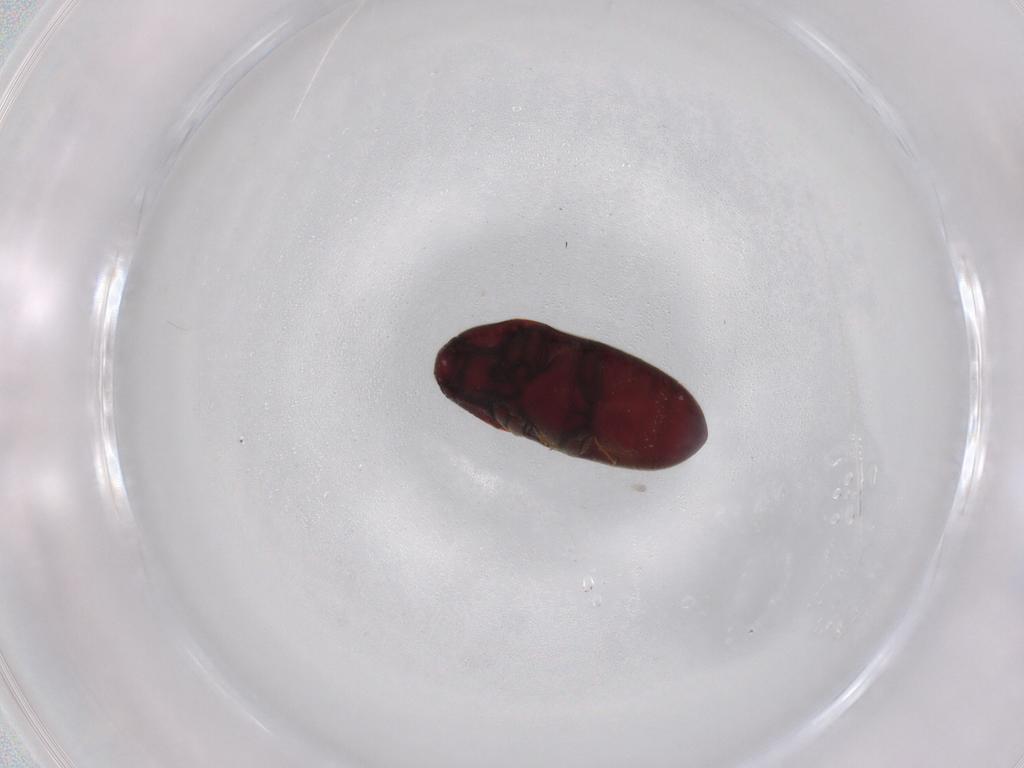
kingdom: Animalia
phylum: Arthropoda
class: Insecta
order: Coleoptera
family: Throscidae
